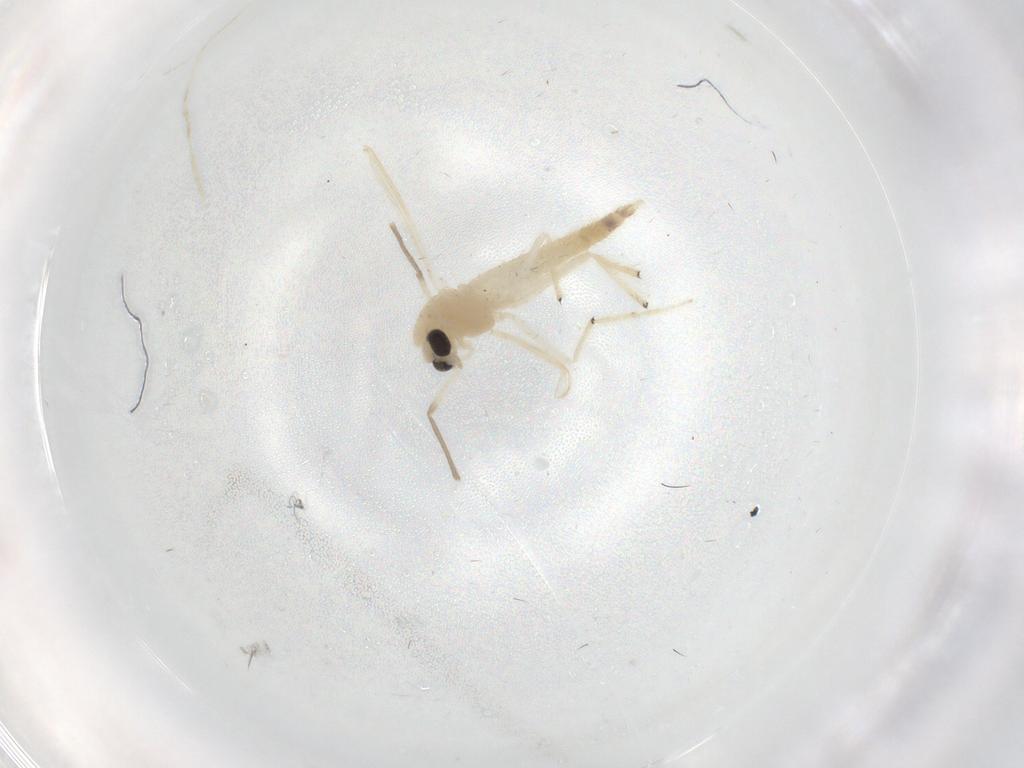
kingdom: Animalia
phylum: Arthropoda
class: Insecta
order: Diptera
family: Chironomidae
